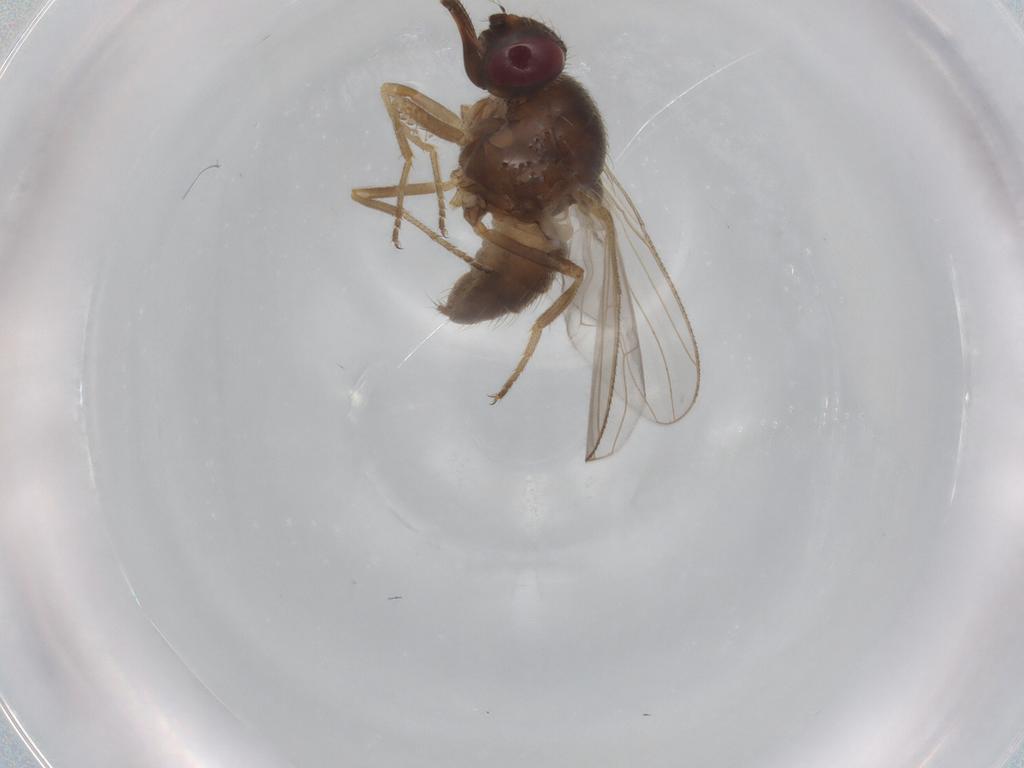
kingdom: Animalia
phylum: Arthropoda
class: Insecta
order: Diptera
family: Muscidae
